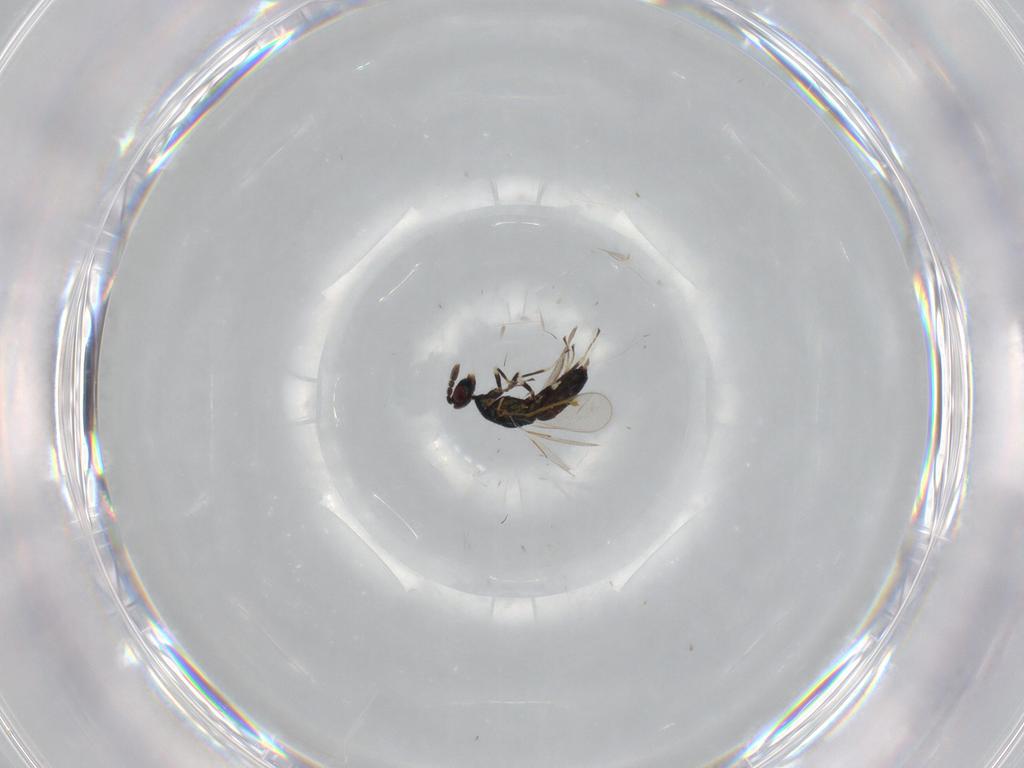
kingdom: Animalia
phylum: Arthropoda
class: Insecta
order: Hymenoptera
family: Eulophidae
